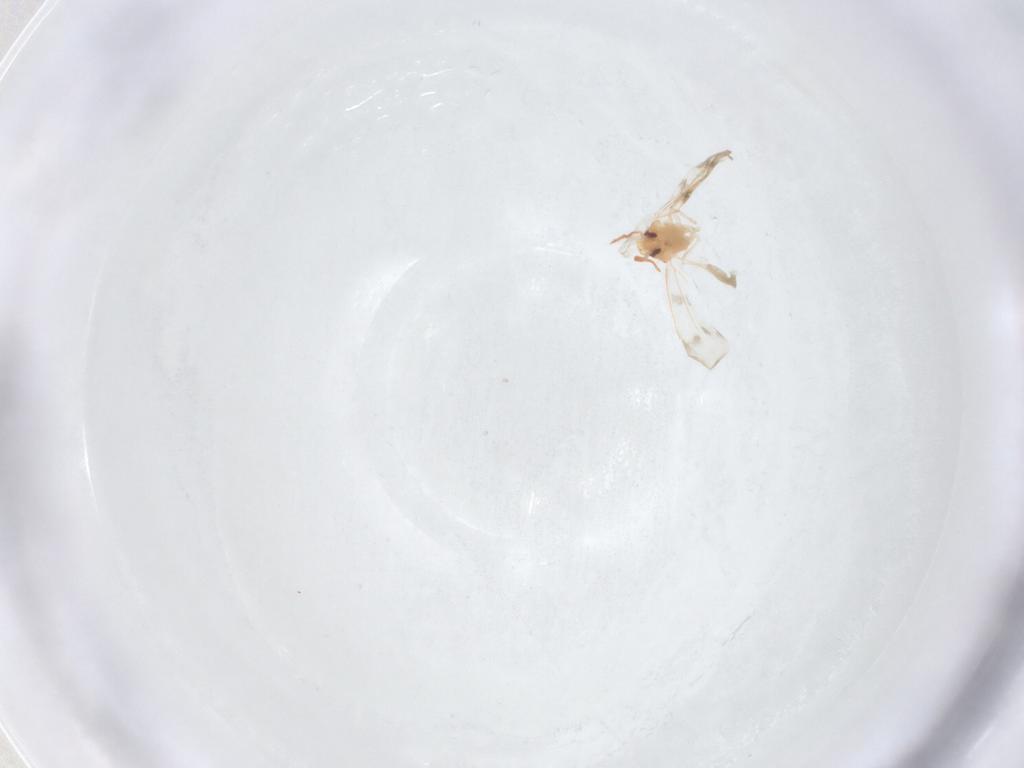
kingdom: Animalia
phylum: Arthropoda
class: Insecta
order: Hemiptera
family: Aleyrodidae
